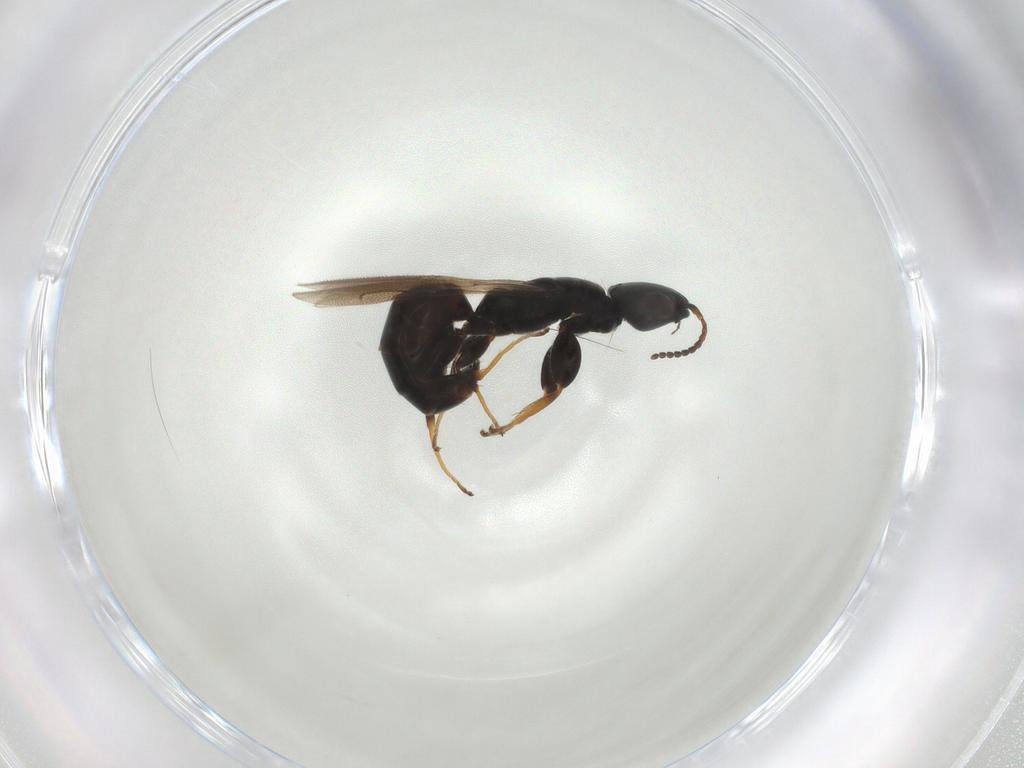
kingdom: Animalia
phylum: Arthropoda
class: Insecta
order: Hymenoptera
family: Bethylidae
